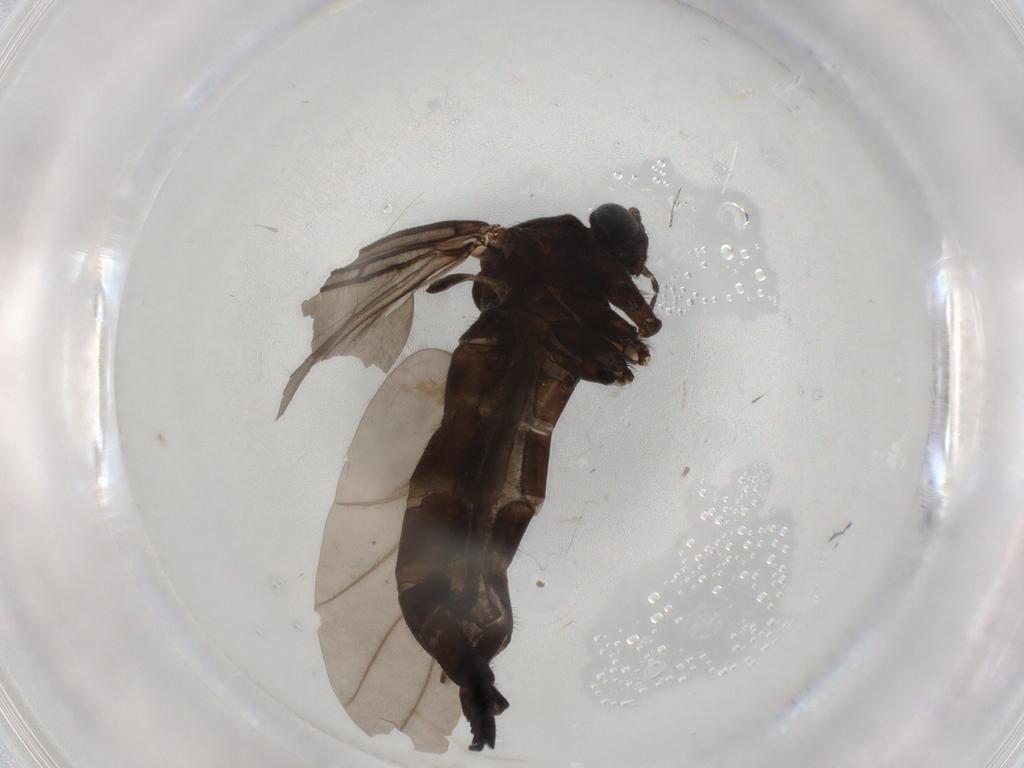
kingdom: Animalia
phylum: Arthropoda
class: Insecta
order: Diptera
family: Sciaridae
